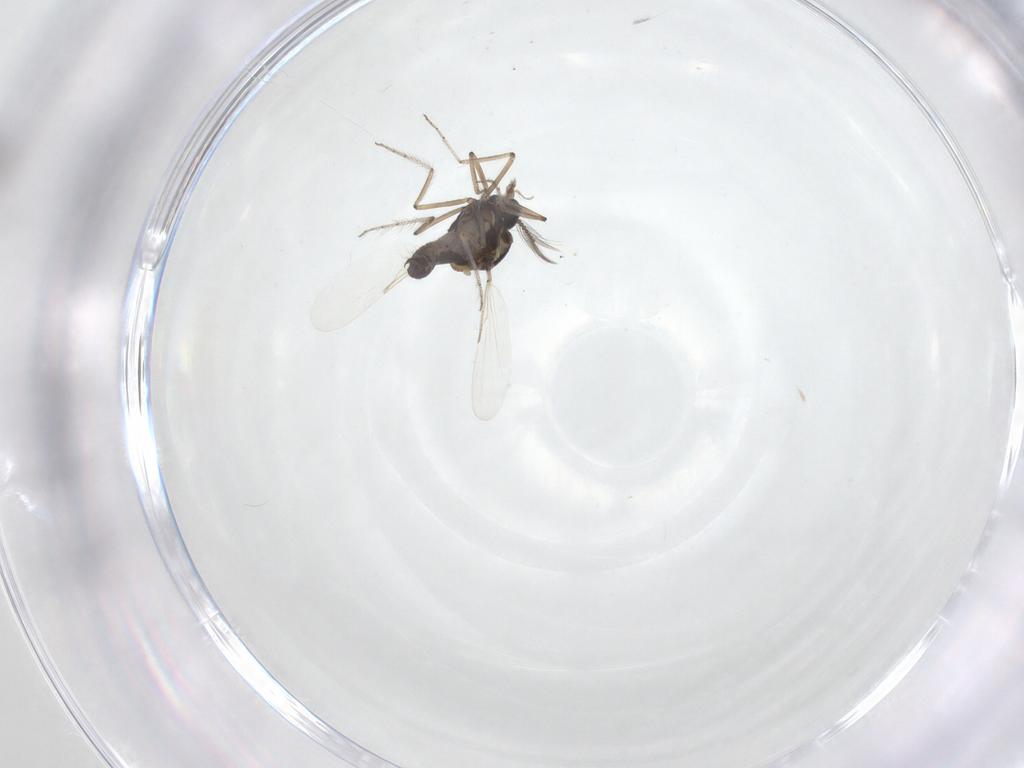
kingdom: Animalia
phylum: Arthropoda
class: Insecta
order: Diptera
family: Ceratopogonidae
